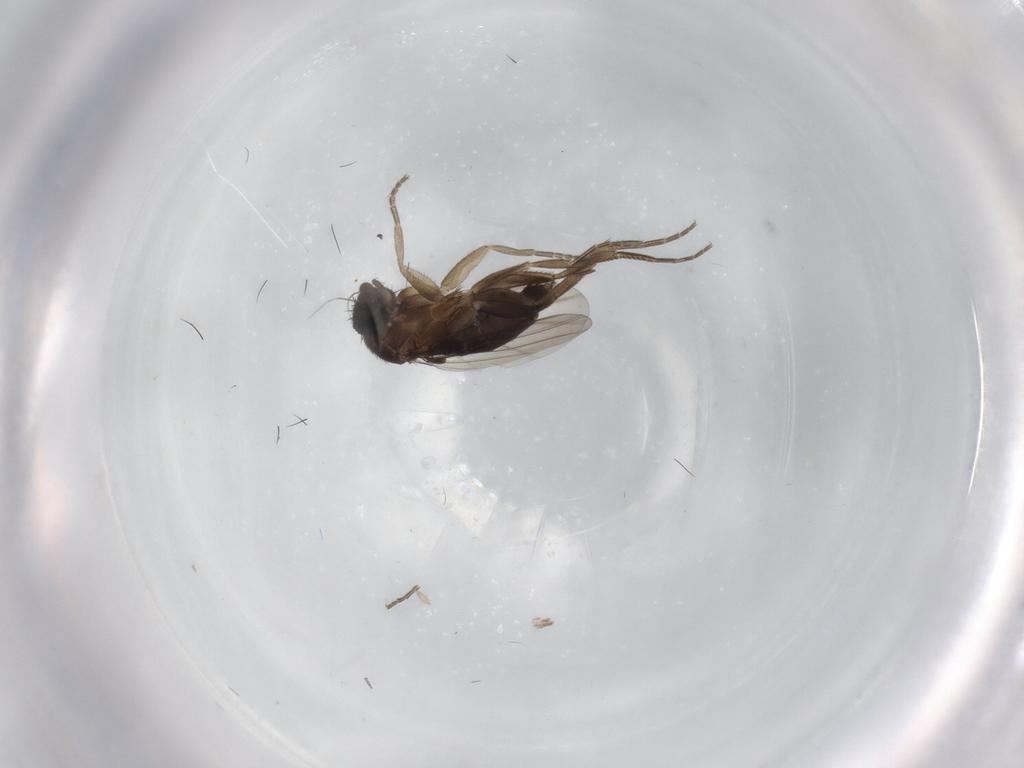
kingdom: Animalia
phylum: Arthropoda
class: Insecta
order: Diptera
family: Phoridae
